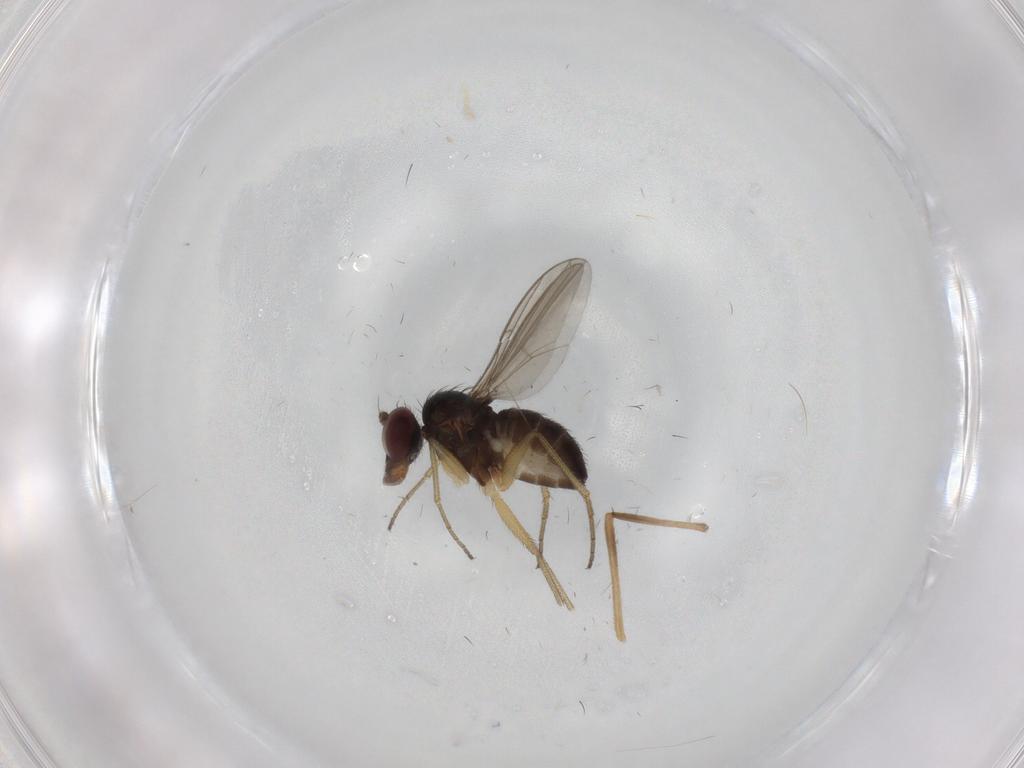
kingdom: Animalia
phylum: Arthropoda
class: Insecta
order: Diptera
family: Dolichopodidae
